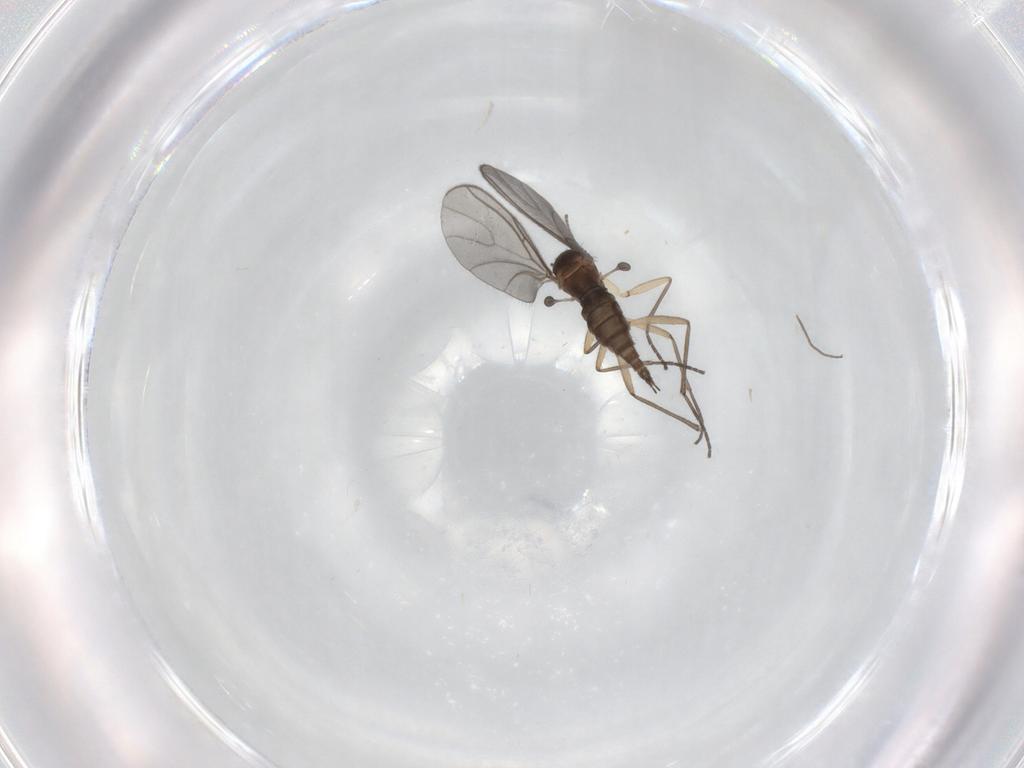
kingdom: Animalia
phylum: Arthropoda
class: Insecta
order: Diptera
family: Sciaridae
